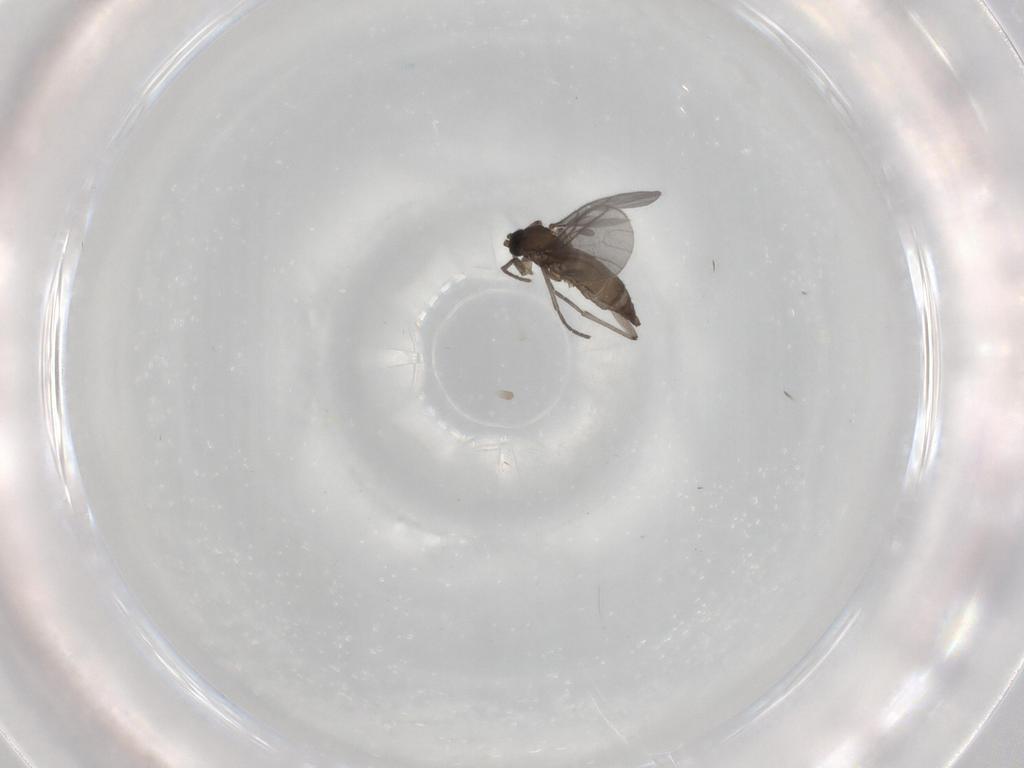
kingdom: Animalia
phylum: Arthropoda
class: Insecta
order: Diptera
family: Sciaridae
